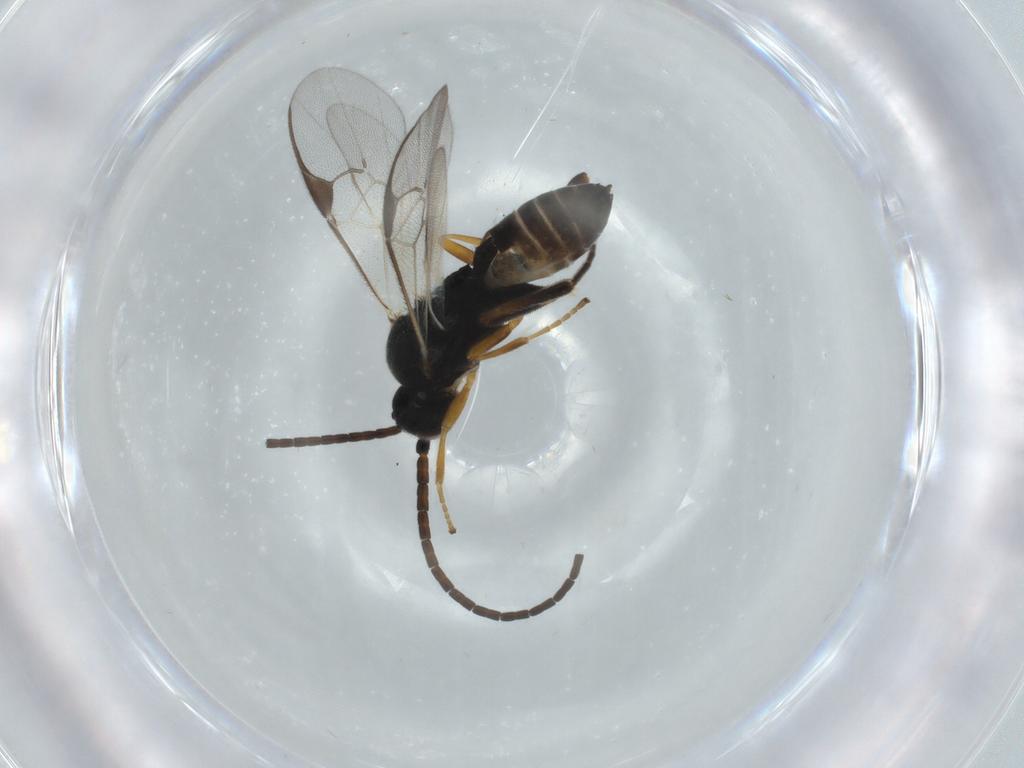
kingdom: Animalia
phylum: Arthropoda
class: Insecta
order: Hymenoptera
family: Braconidae
